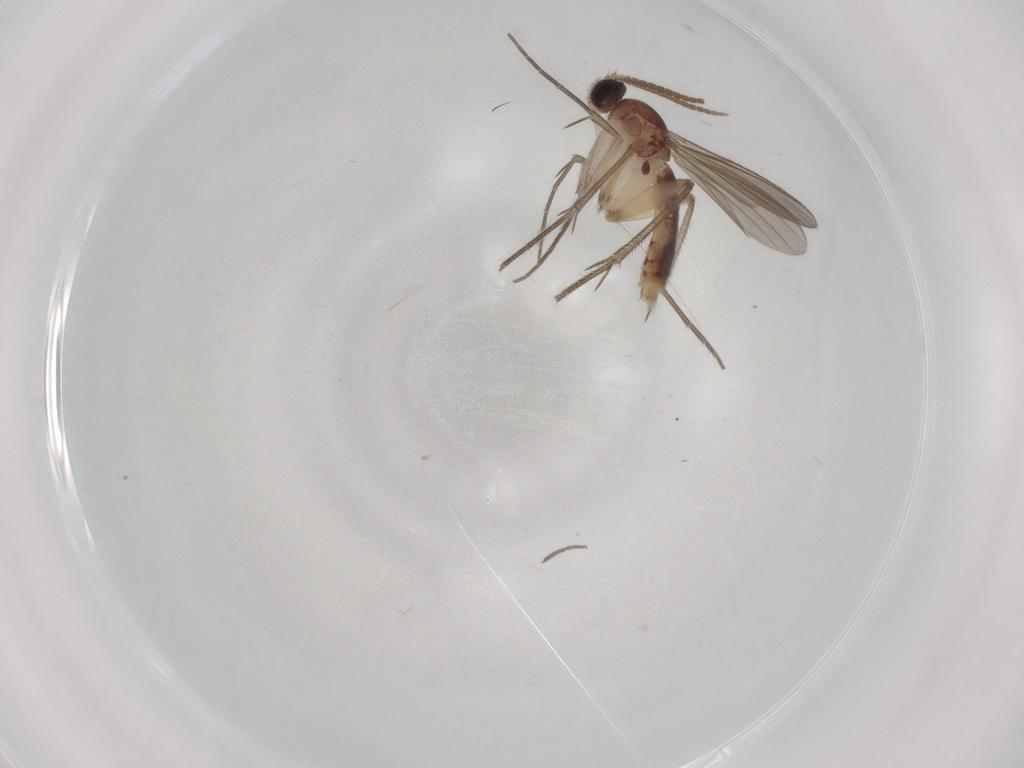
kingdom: Animalia
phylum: Arthropoda
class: Insecta
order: Diptera
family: Mycetophilidae
